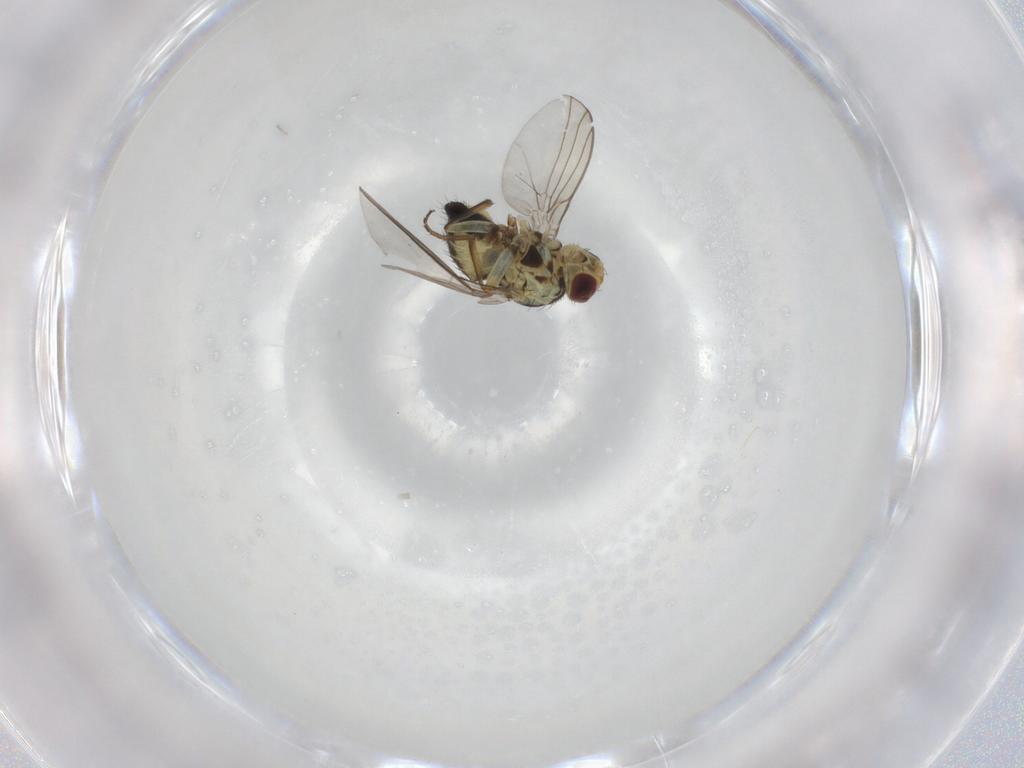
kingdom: Animalia
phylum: Arthropoda
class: Insecta
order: Diptera
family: Agromyzidae
